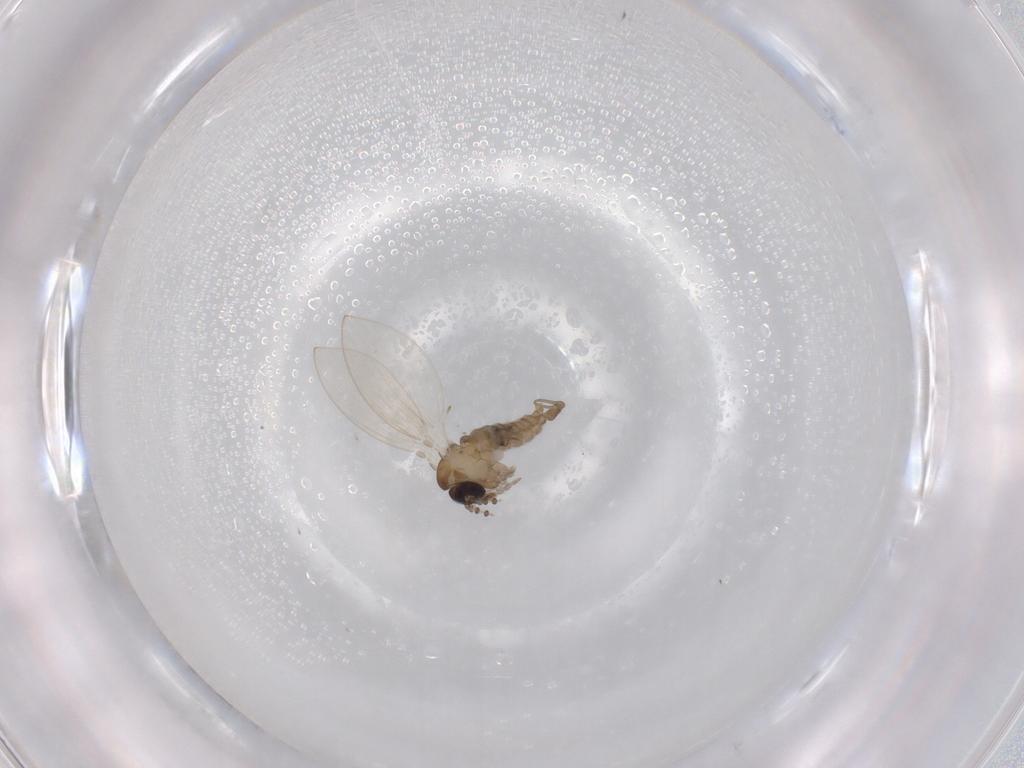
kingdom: Animalia
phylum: Arthropoda
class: Insecta
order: Diptera
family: Psychodidae
